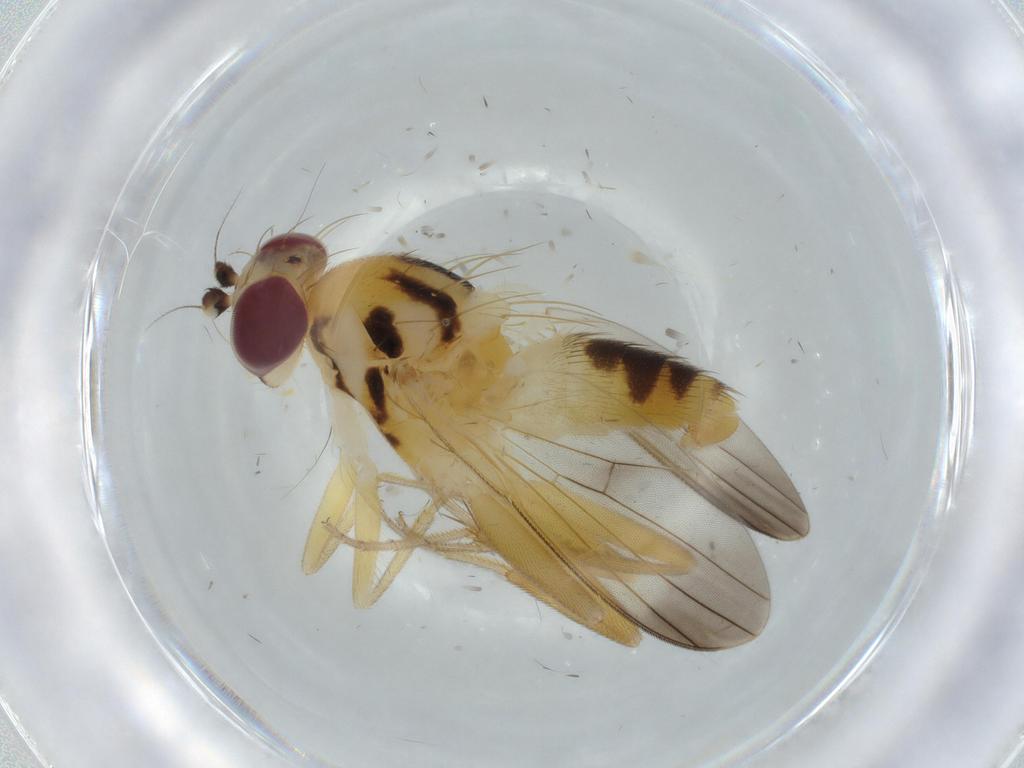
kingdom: Animalia
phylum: Arthropoda
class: Insecta
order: Diptera
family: Clusiidae
